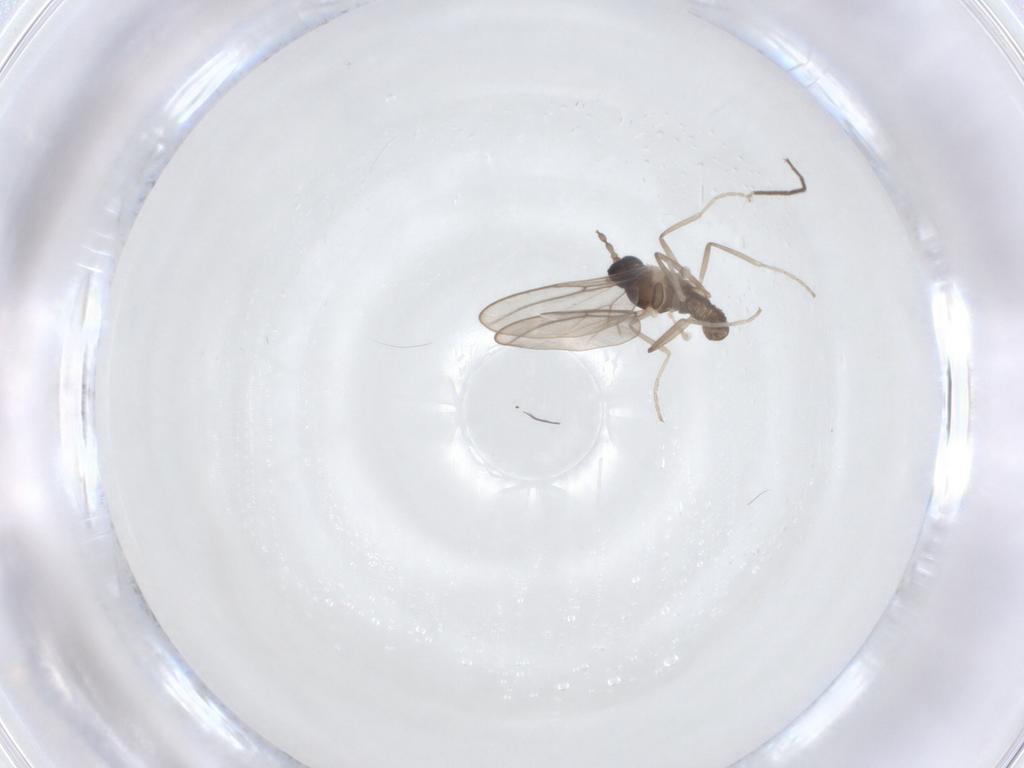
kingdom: Animalia
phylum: Arthropoda
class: Insecta
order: Diptera
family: Cecidomyiidae
